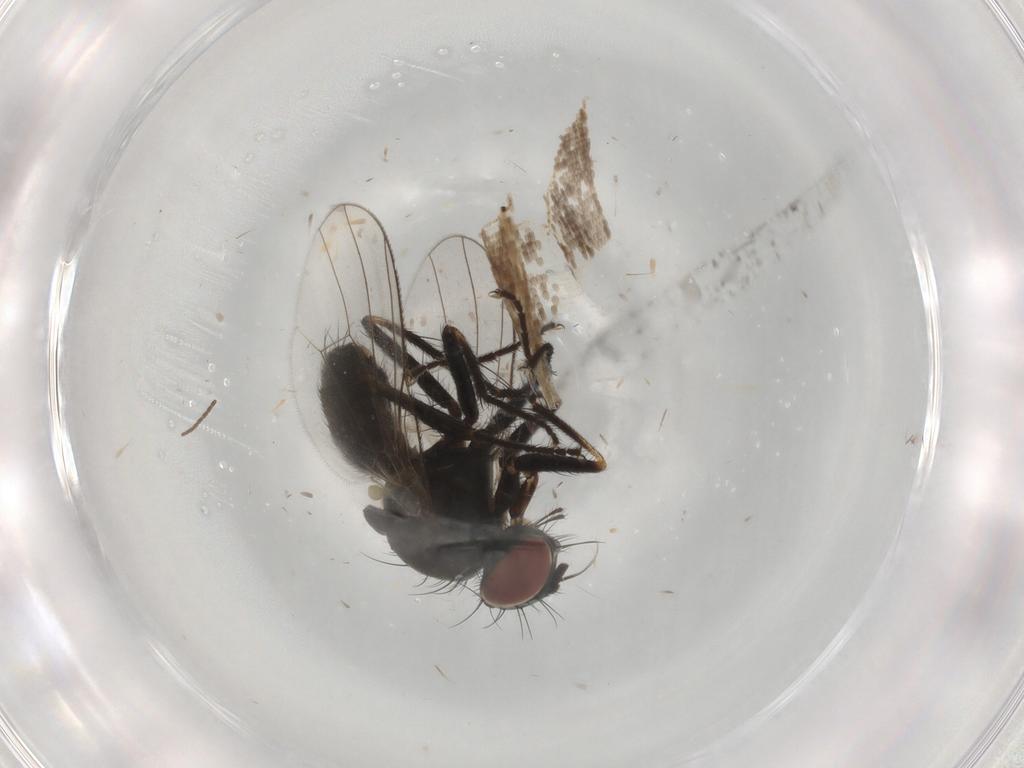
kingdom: Animalia
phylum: Arthropoda
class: Insecta
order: Diptera
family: Muscidae
